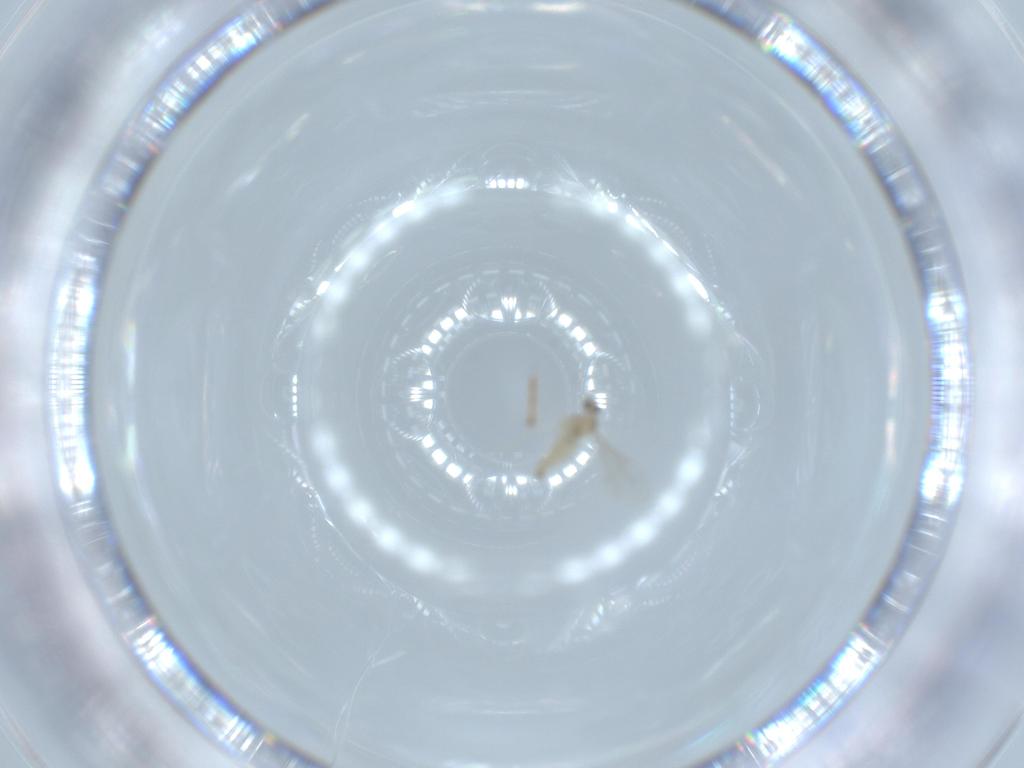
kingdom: Animalia
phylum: Arthropoda
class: Insecta
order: Diptera
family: Cecidomyiidae
